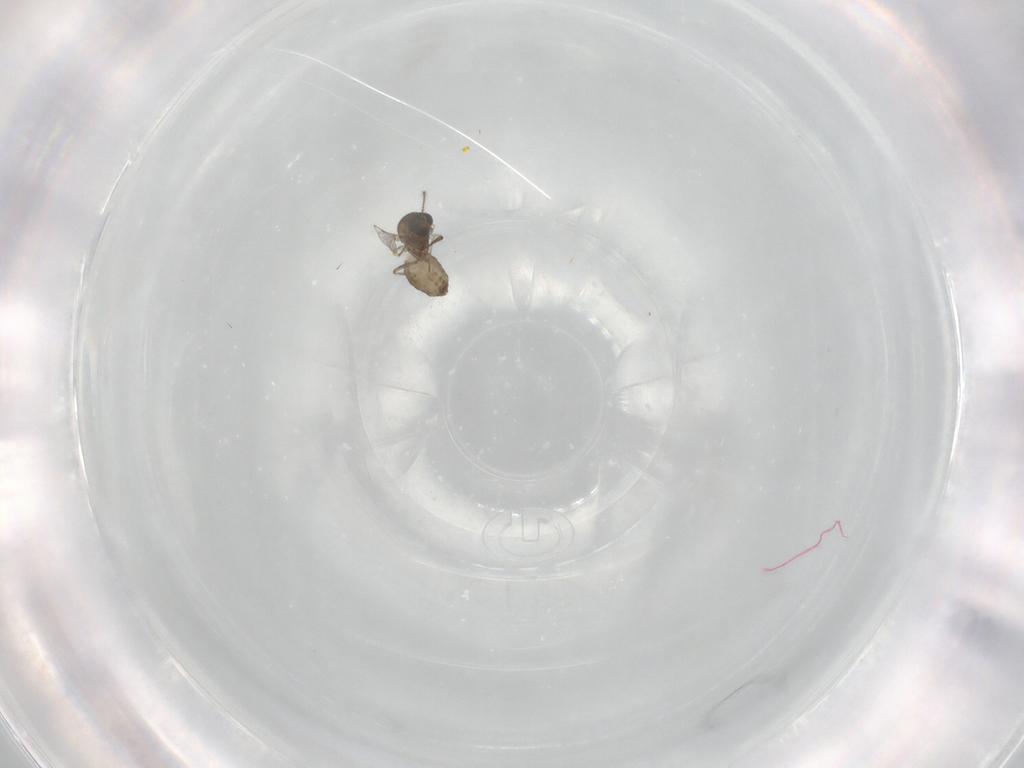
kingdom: Animalia
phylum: Arthropoda
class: Insecta
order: Diptera
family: Ceratopogonidae
